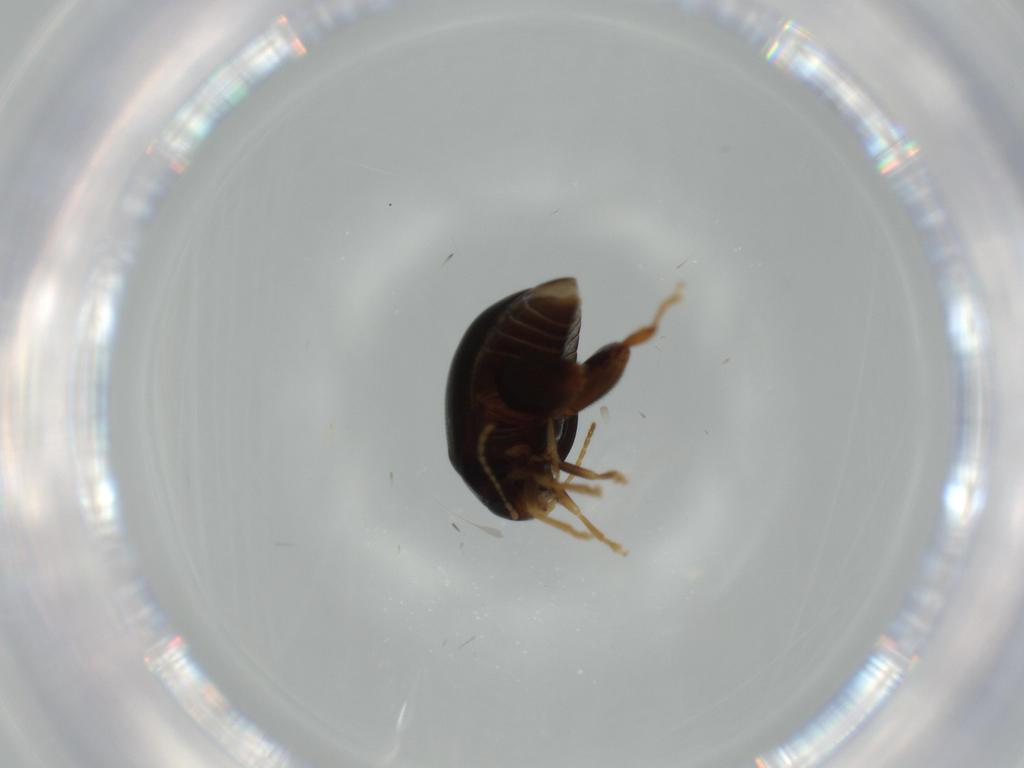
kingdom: Animalia
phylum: Arthropoda
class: Insecta
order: Coleoptera
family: Chrysomelidae
